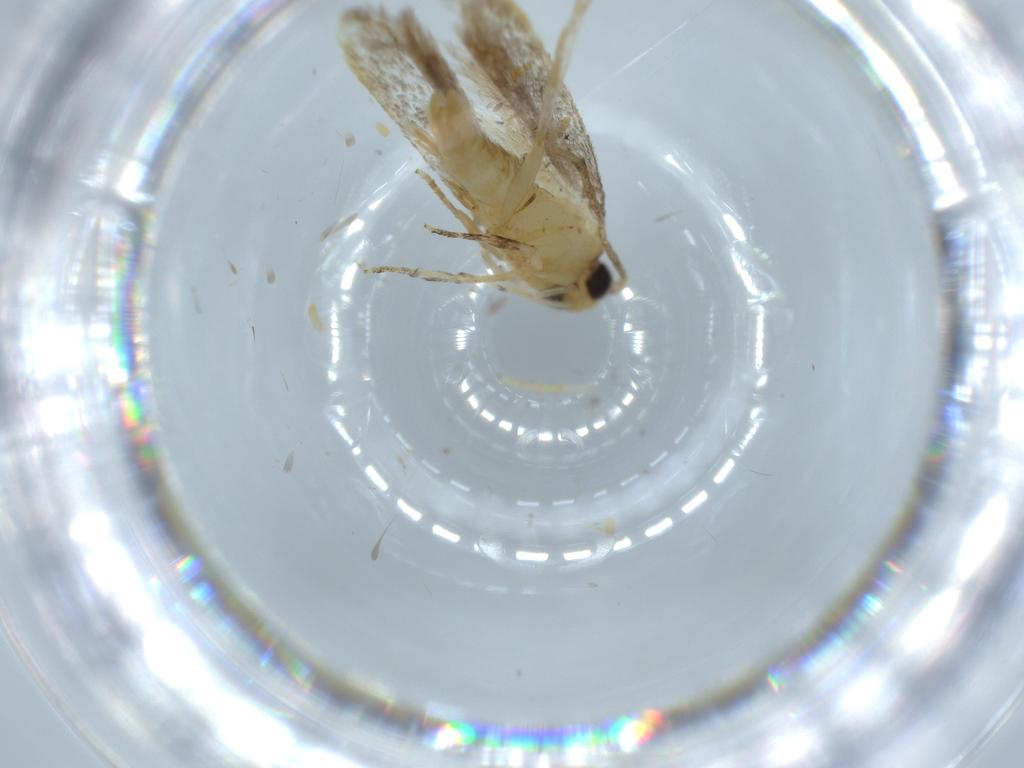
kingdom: Animalia
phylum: Arthropoda
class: Insecta
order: Lepidoptera
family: Autostichidae
